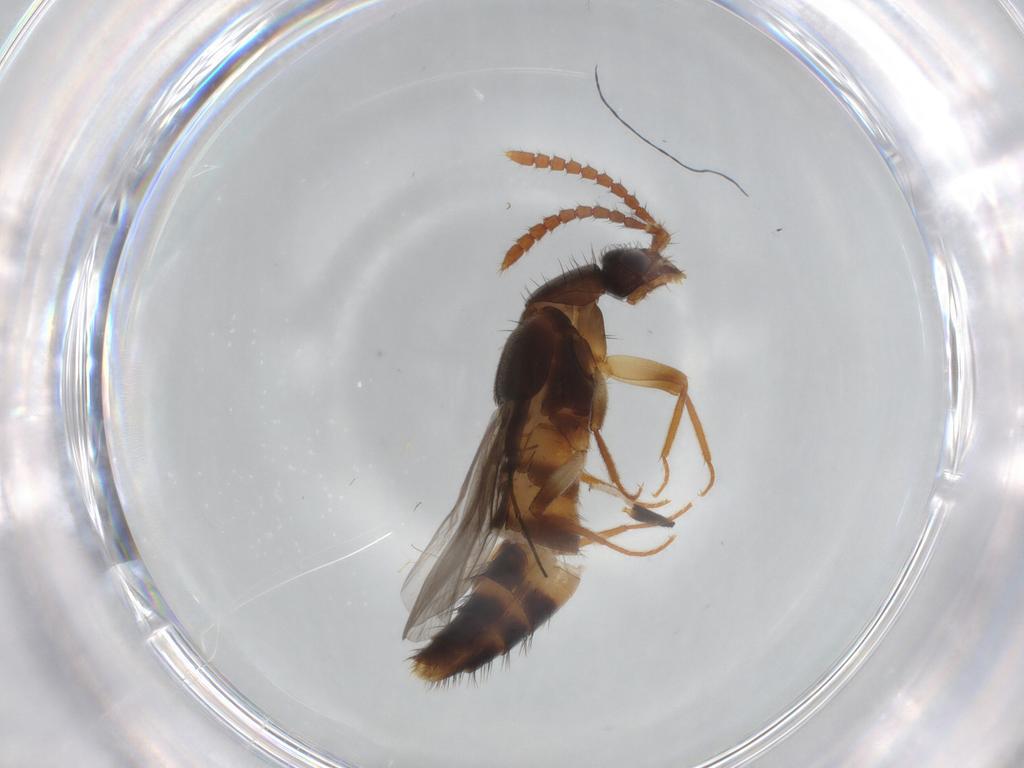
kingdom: Animalia
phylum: Arthropoda
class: Insecta
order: Coleoptera
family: Staphylinidae
